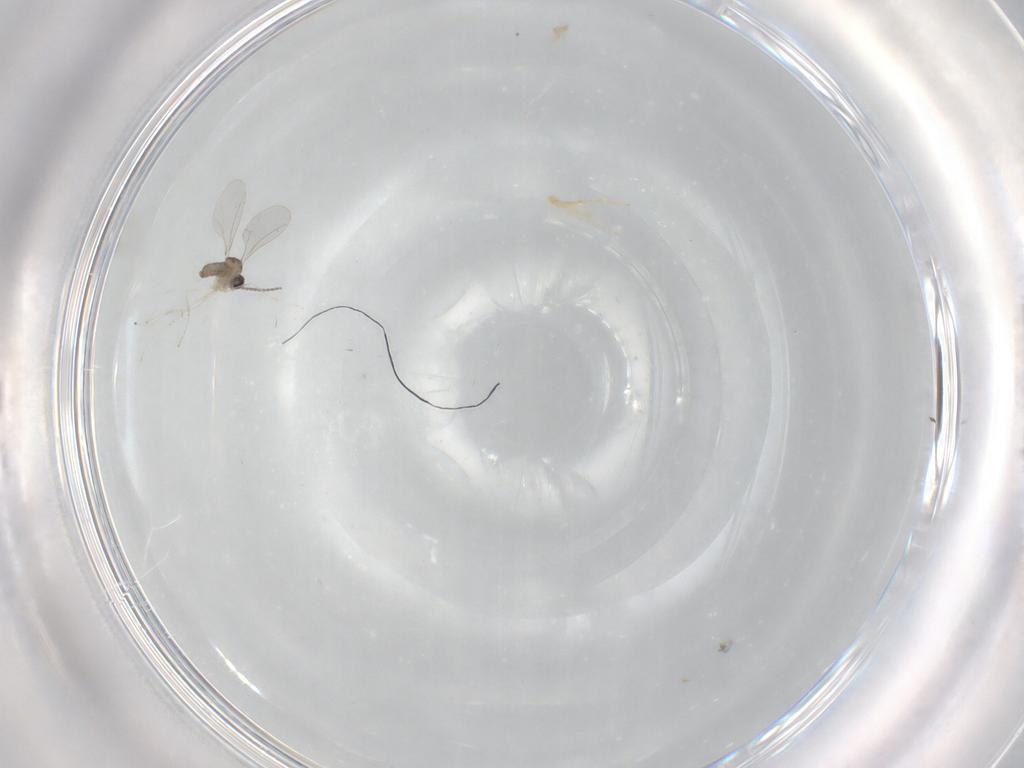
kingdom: Animalia
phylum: Arthropoda
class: Insecta
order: Diptera
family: Cecidomyiidae
